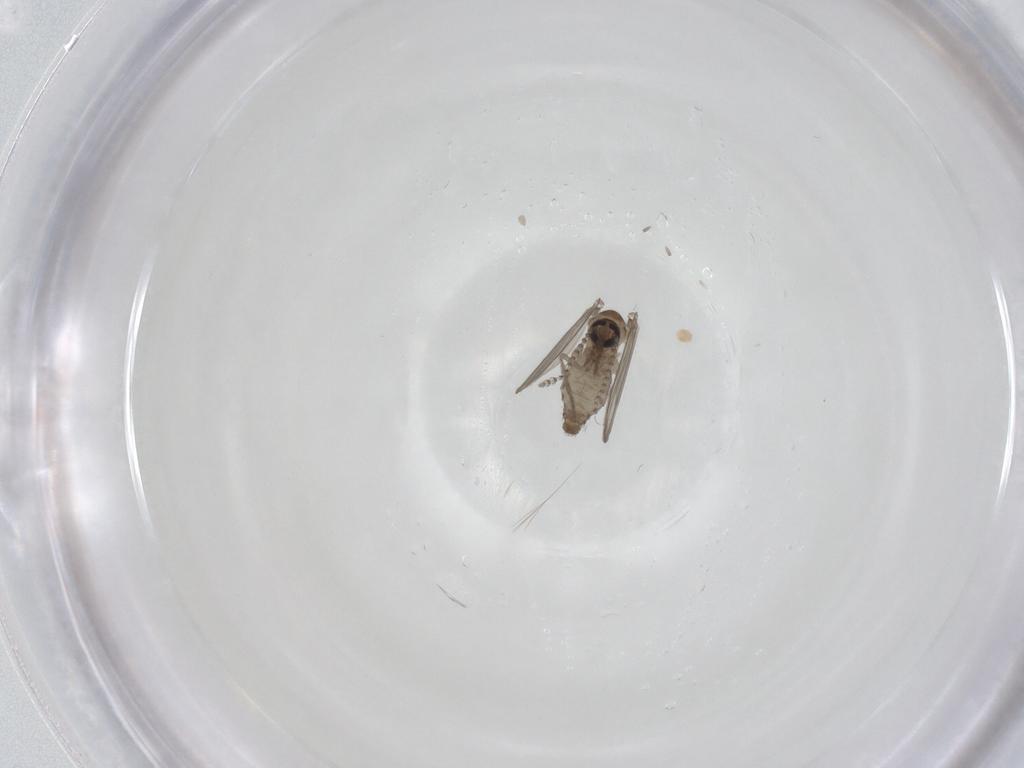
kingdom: Animalia
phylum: Arthropoda
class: Insecta
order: Diptera
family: Psychodidae
